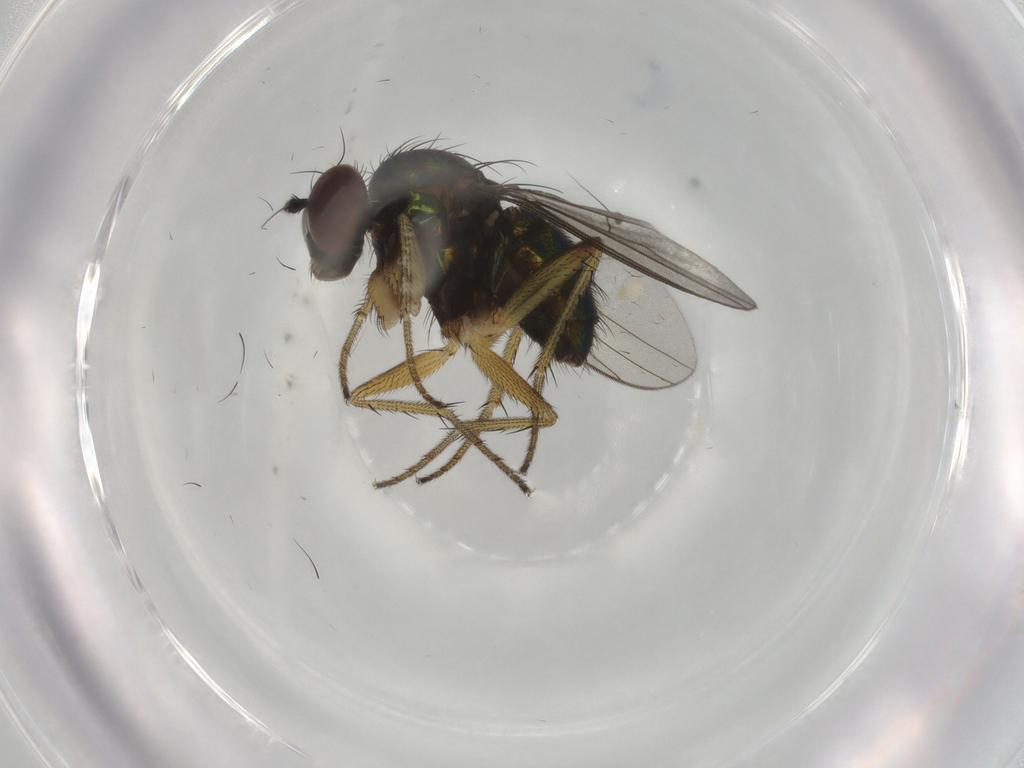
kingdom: Animalia
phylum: Arthropoda
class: Insecta
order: Diptera
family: Dolichopodidae
